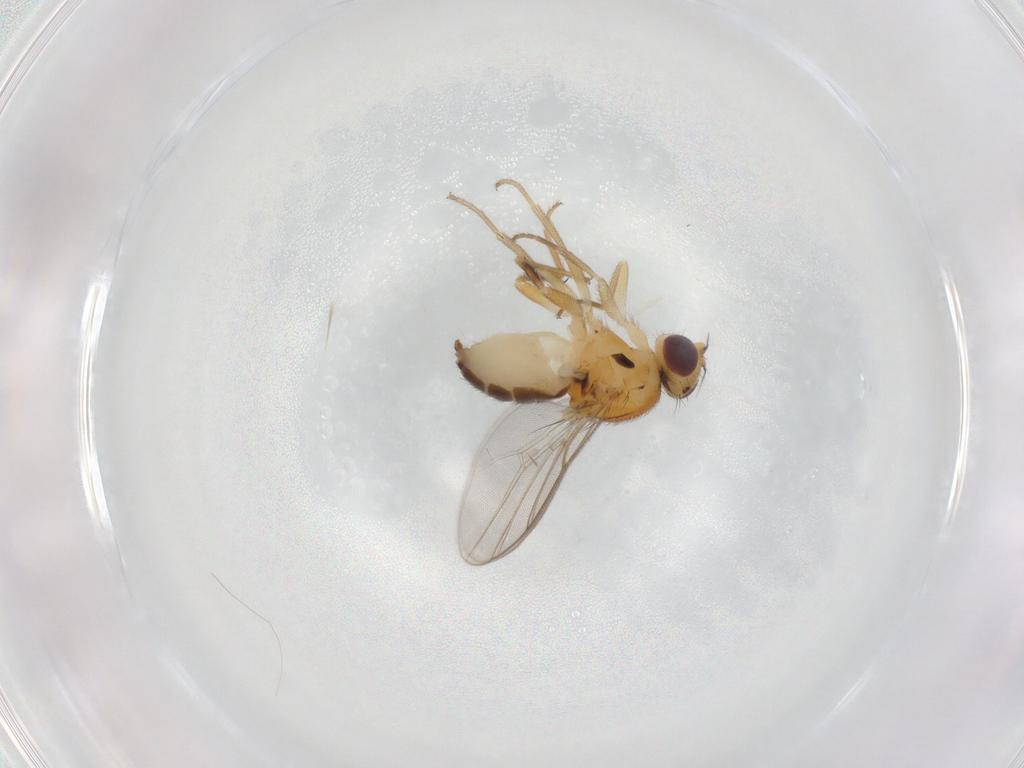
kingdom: Animalia
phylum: Arthropoda
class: Insecta
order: Diptera
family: Chloropidae
